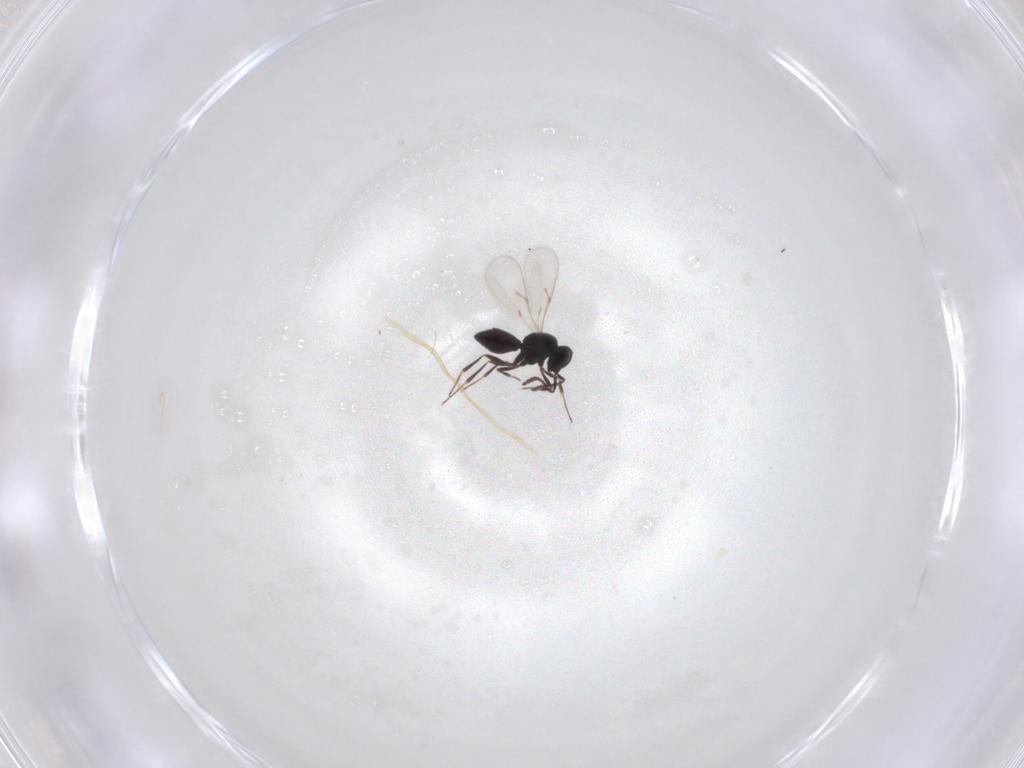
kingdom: Animalia
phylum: Arthropoda
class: Insecta
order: Hymenoptera
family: Scelionidae
